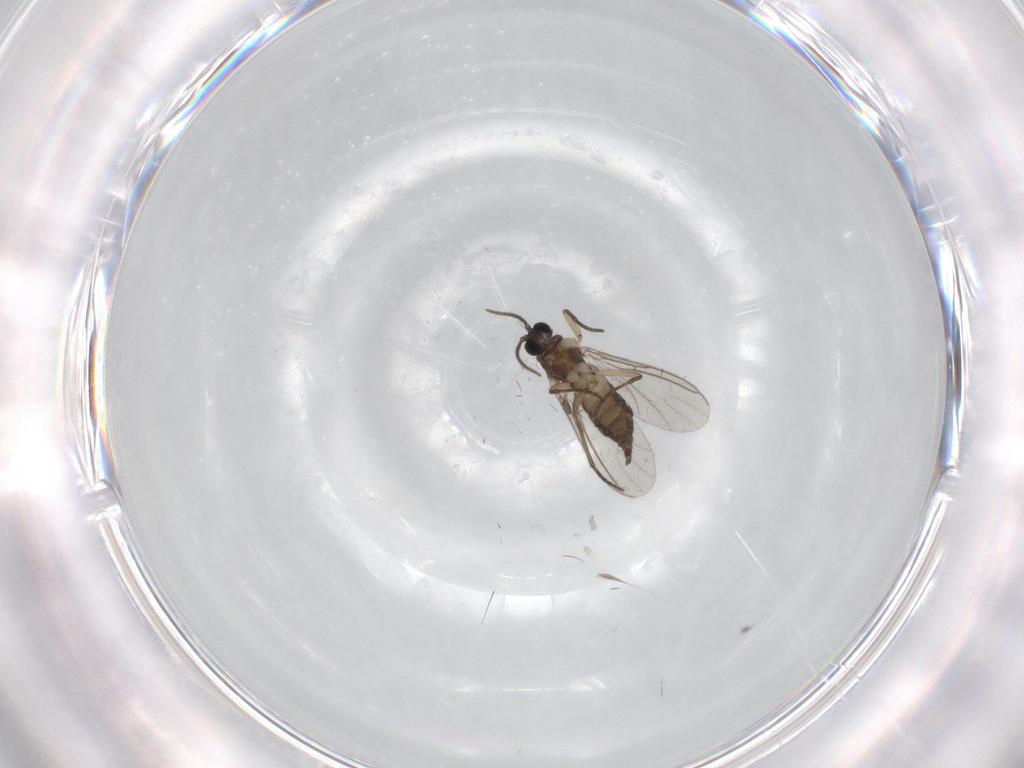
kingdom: Animalia
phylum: Arthropoda
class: Insecta
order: Diptera
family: Sciaridae
